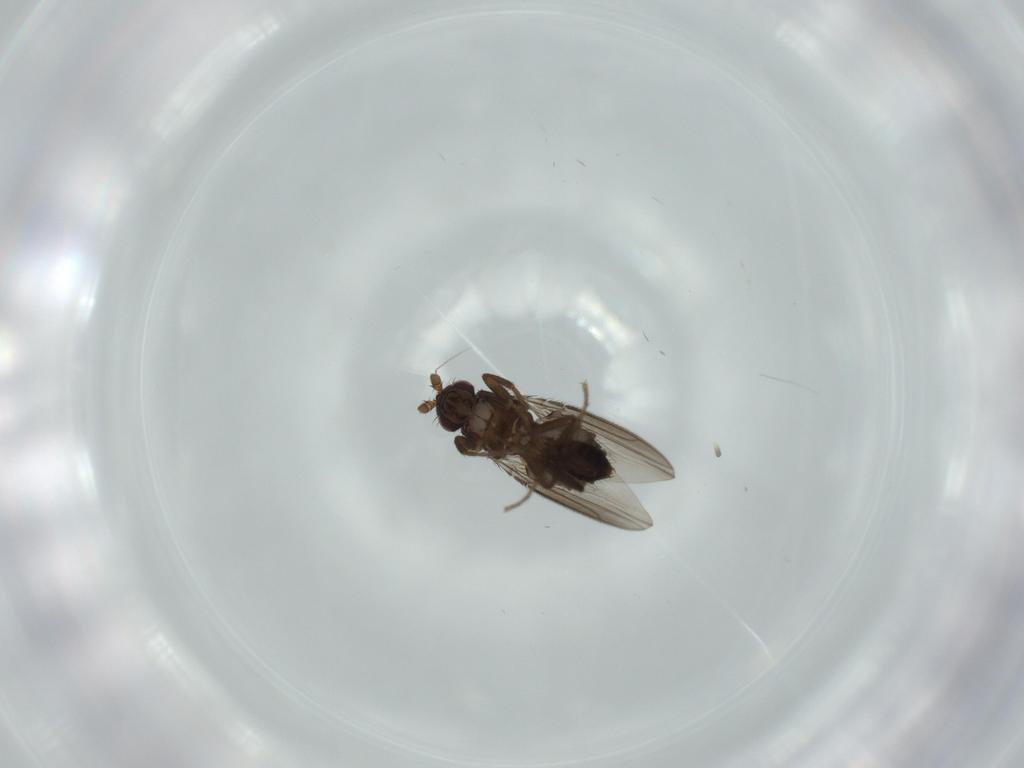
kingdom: Animalia
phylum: Arthropoda
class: Insecta
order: Diptera
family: Sphaeroceridae
